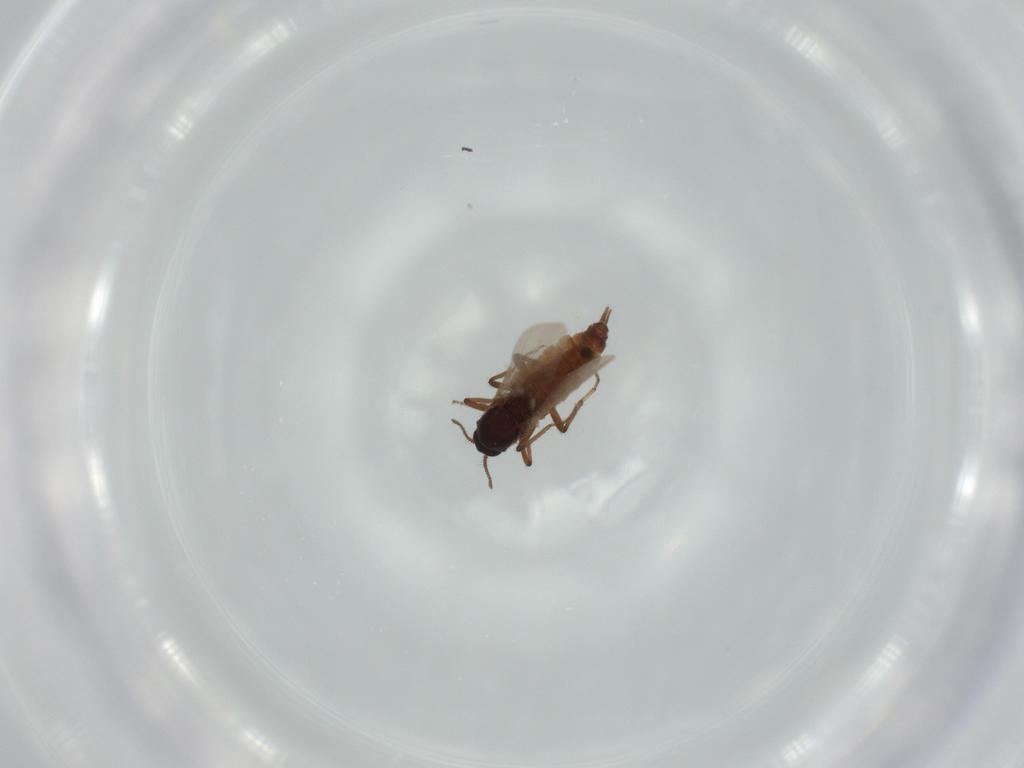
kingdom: Animalia
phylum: Arthropoda
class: Insecta
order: Diptera
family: Ceratopogonidae
